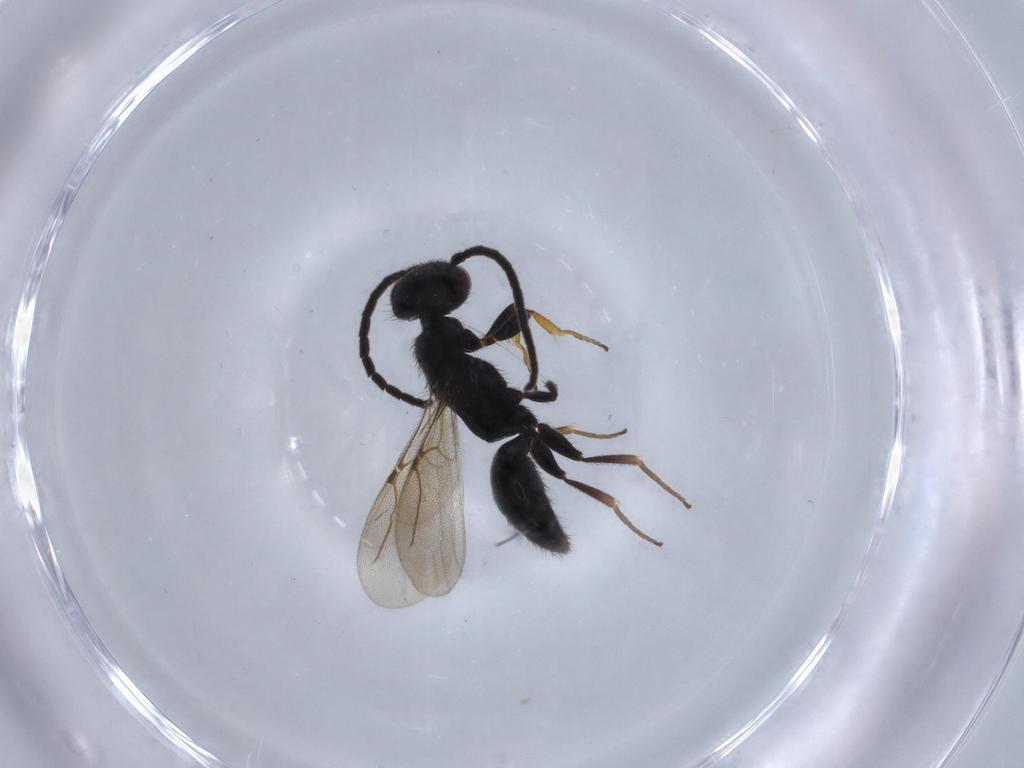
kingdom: Animalia
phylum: Arthropoda
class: Insecta
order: Hymenoptera
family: Bethylidae
